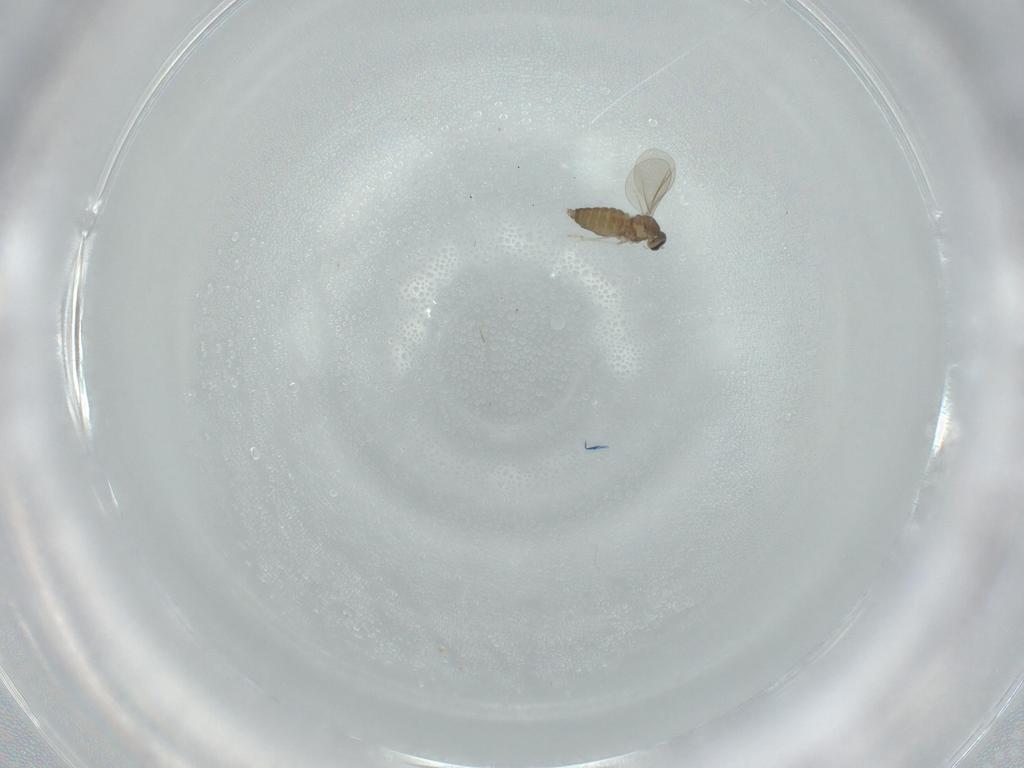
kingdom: Animalia
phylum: Arthropoda
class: Insecta
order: Diptera
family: Cecidomyiidae
